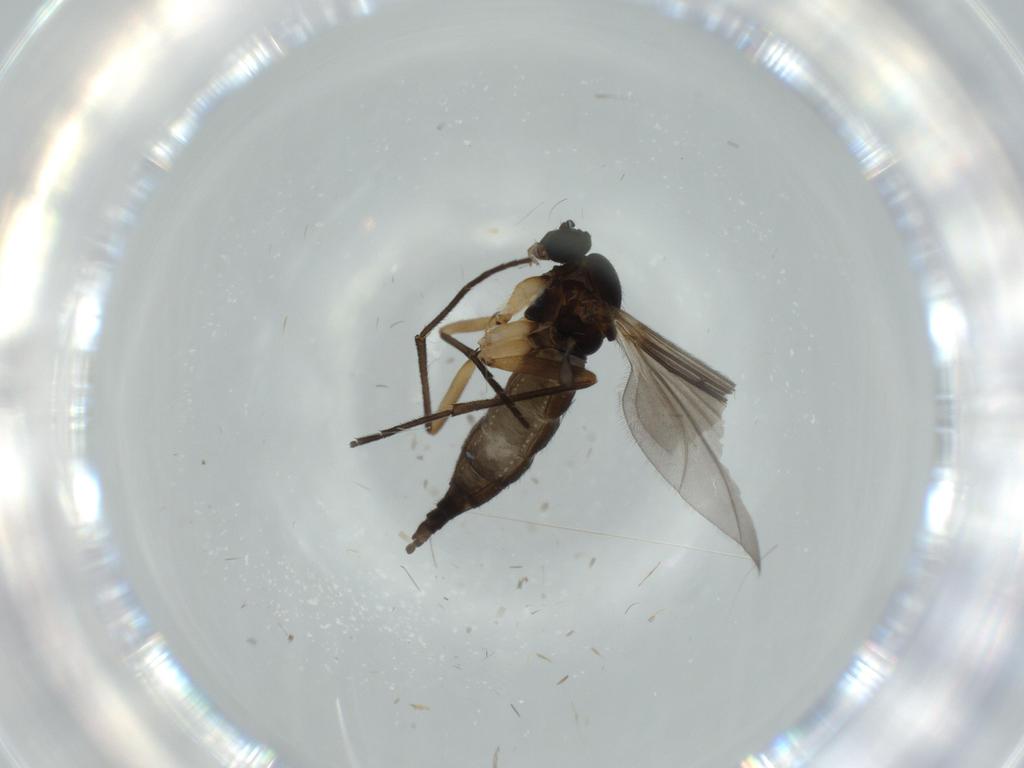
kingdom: Animalia
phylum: Arthropoda
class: Insecta
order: Diptera
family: Sciaridae
